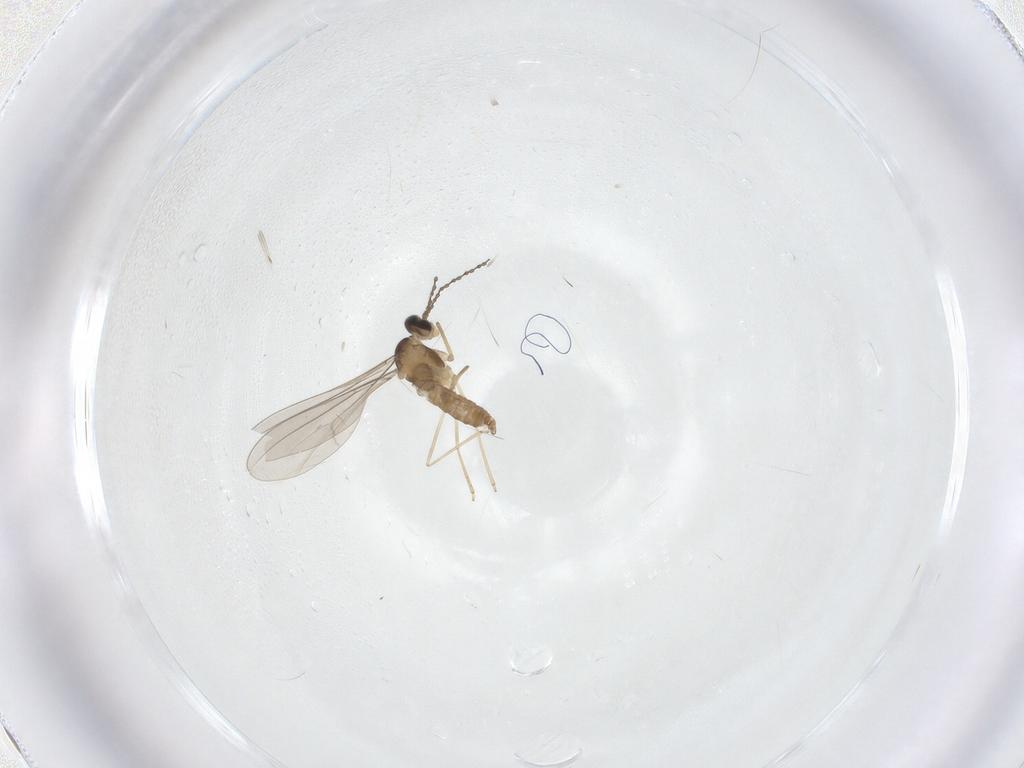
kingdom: Animalia
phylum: Arthropoda
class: Insecta
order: Diptera
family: Cecidomyiidae
